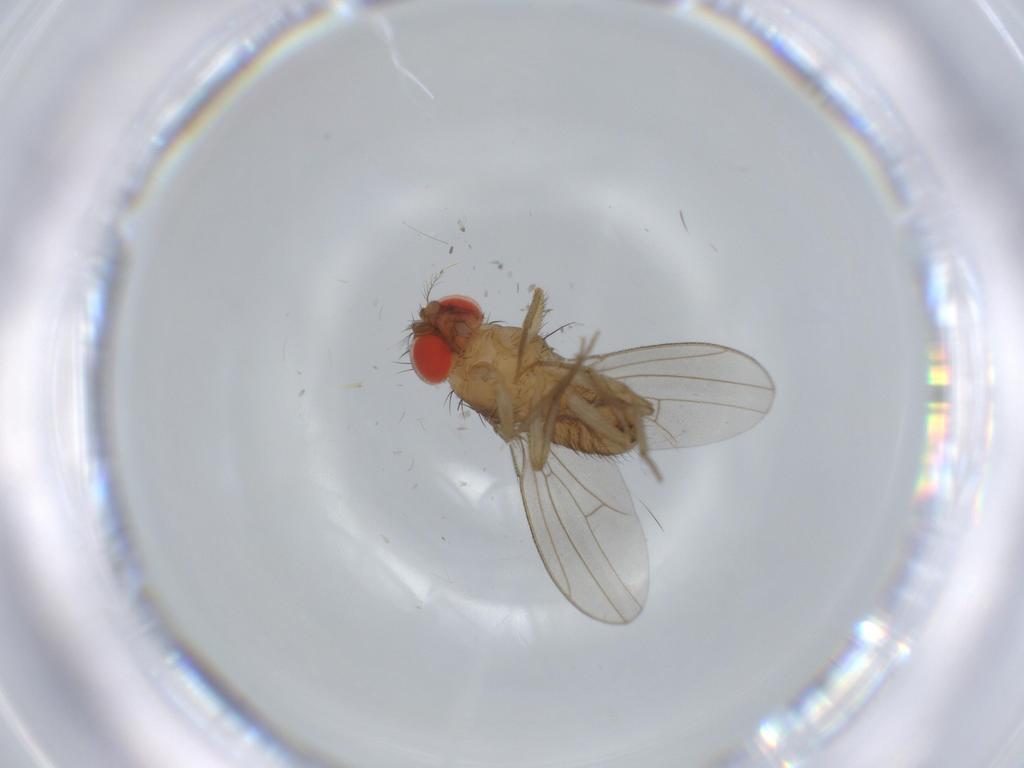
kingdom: Animalia
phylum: Arthropoda
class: Insecta
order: Diptera
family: Drosophilidae
